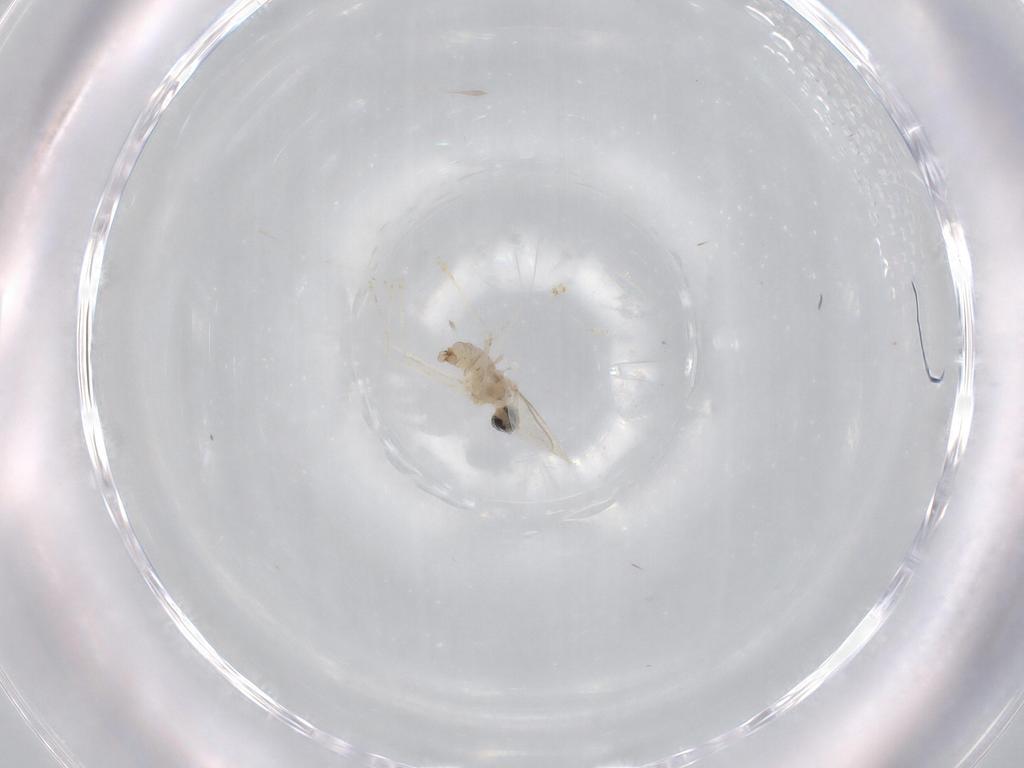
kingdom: Animalia
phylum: Arthropoda
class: Insecta
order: Diptera
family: Cecidomyiidae
